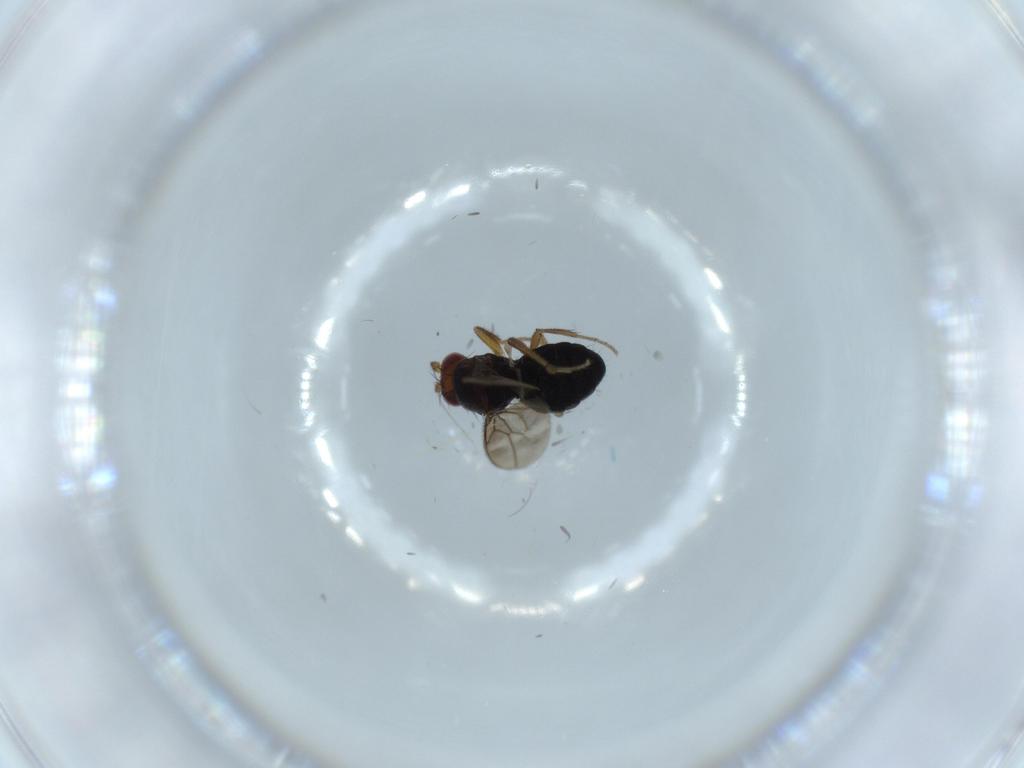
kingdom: Animalia
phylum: Arthropoda
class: Insecta
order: Diptera
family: Sphaeroceridae
